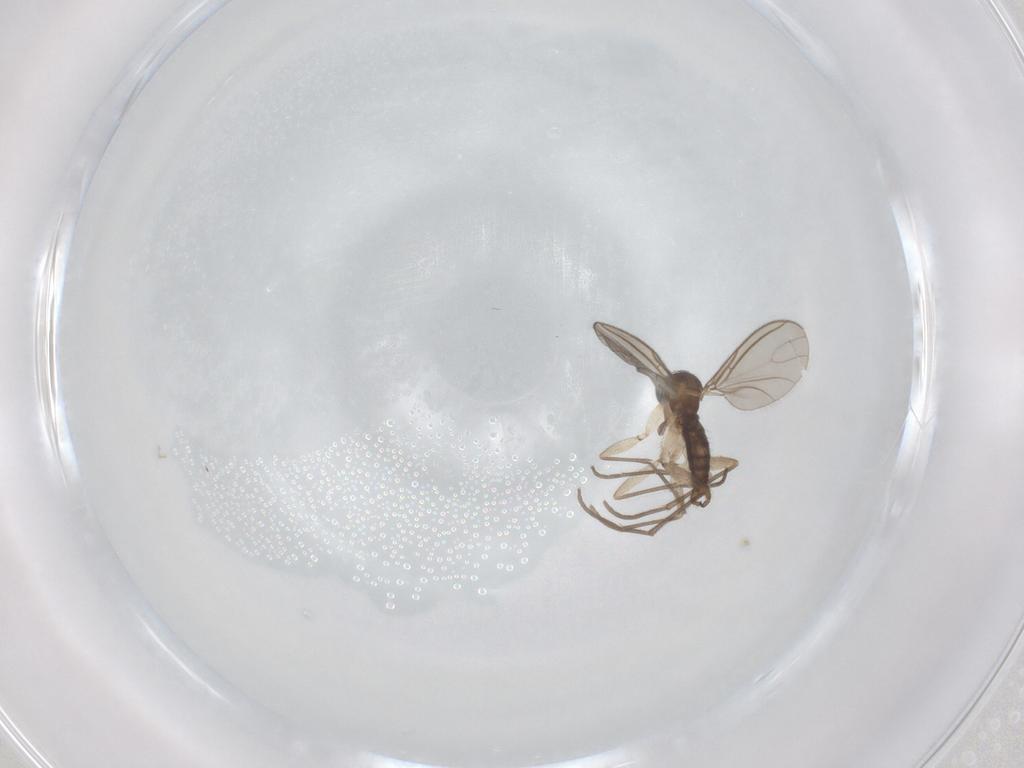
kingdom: Animalia
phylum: Arthropoda
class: Insecta
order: Diptera
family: Sciaridae
